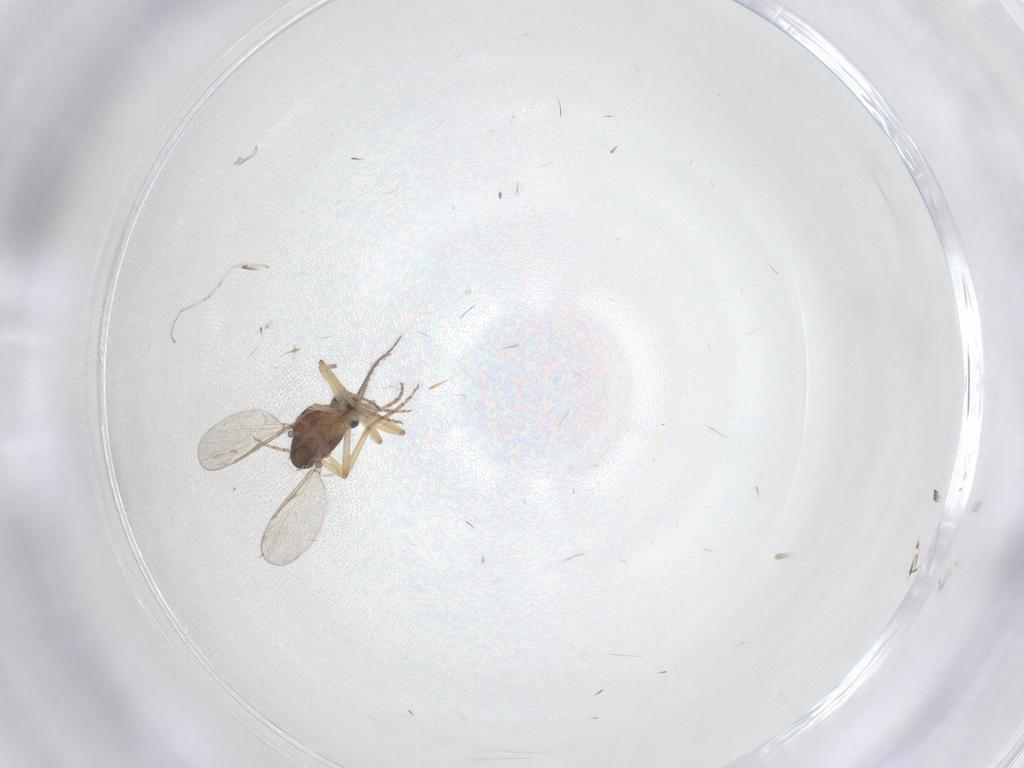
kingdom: Animalia
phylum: Arthropoda
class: Insecta
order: Diptera
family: Ceratopogonidae
